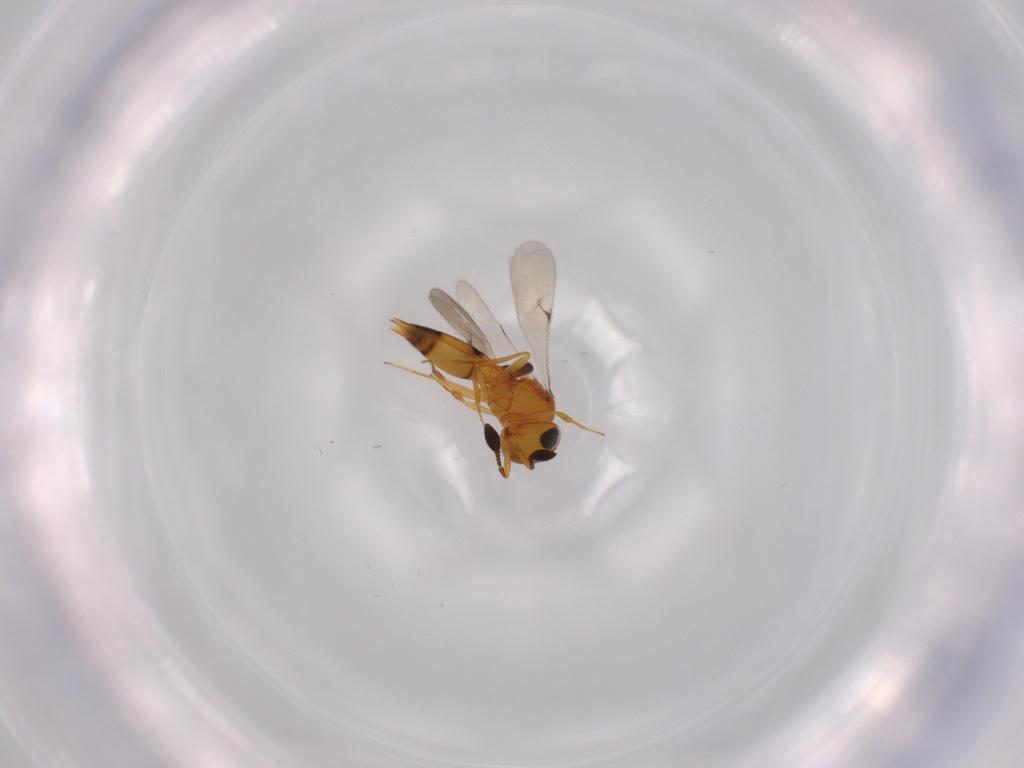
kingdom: Animalia
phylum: Arthropoda
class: Insecta
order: Hymenoptera
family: Scelionidae
